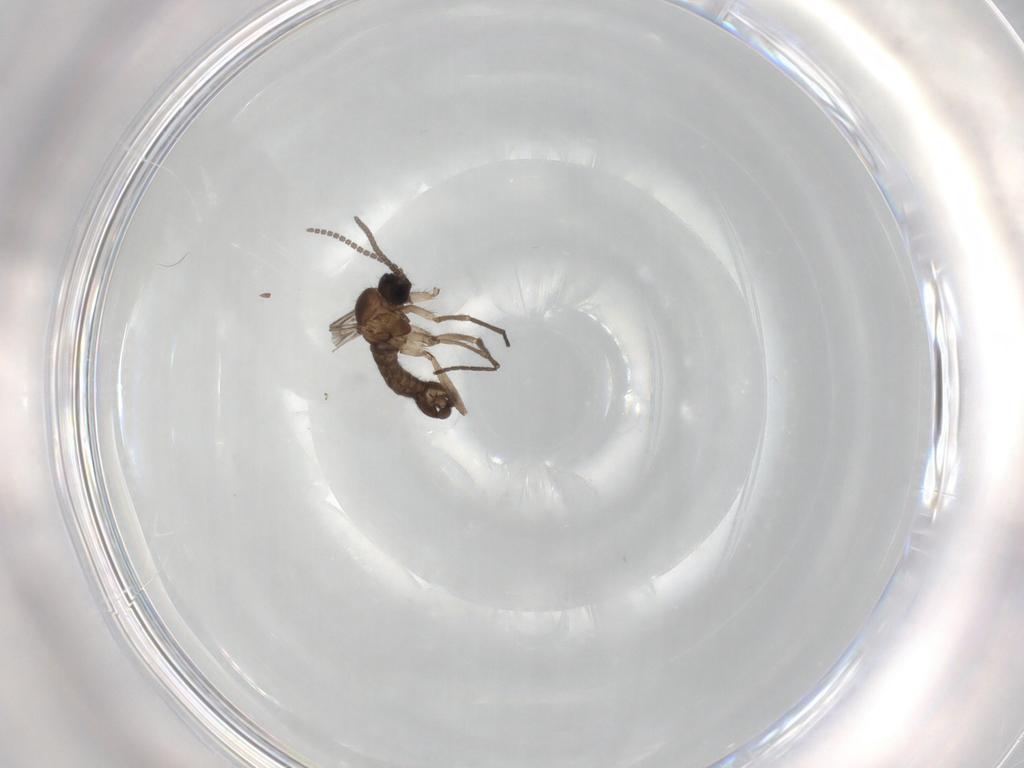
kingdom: Animalia
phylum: Arthropoda
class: Insecta
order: Diptera
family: Sciaridae
